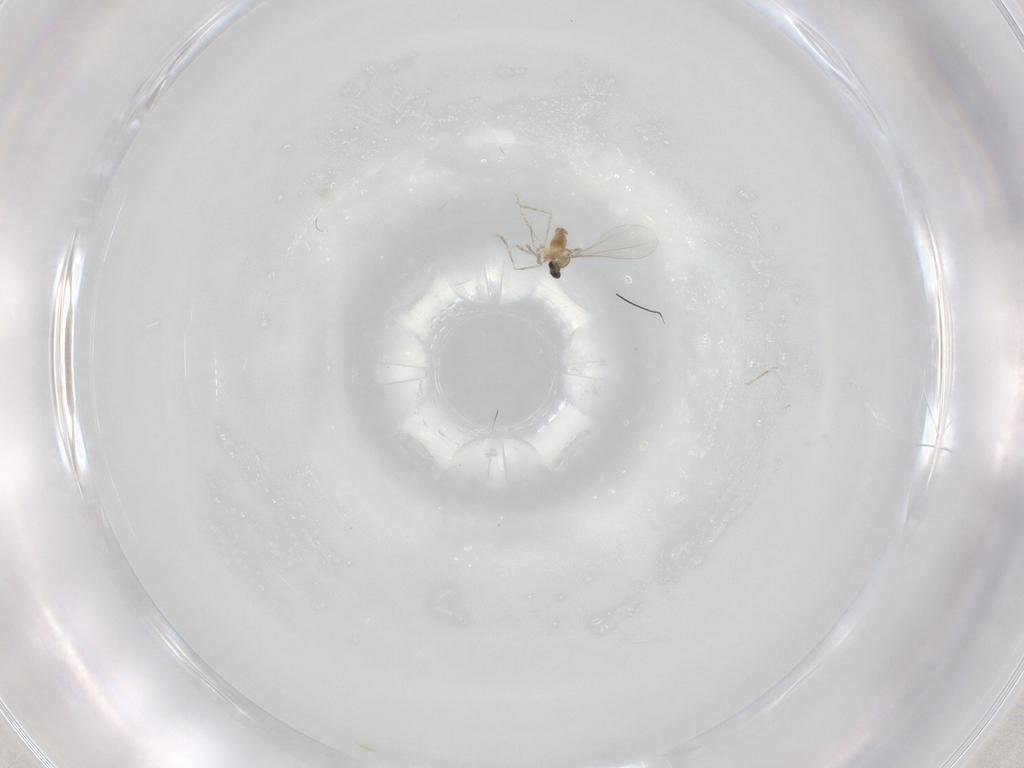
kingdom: Animalia
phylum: Arthropoda
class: Insecta
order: Diptera
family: Cecidomyiidae
